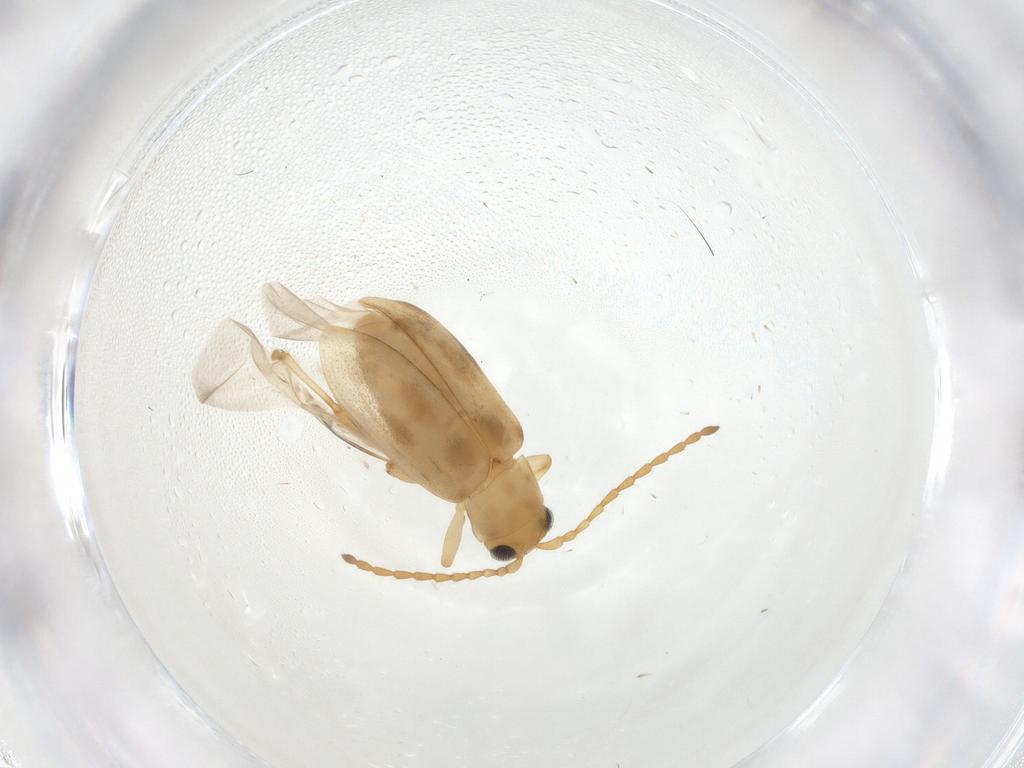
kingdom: Animalia
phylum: Arthropoda
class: Insecta
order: Coleoptera
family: Chrysomelidae
